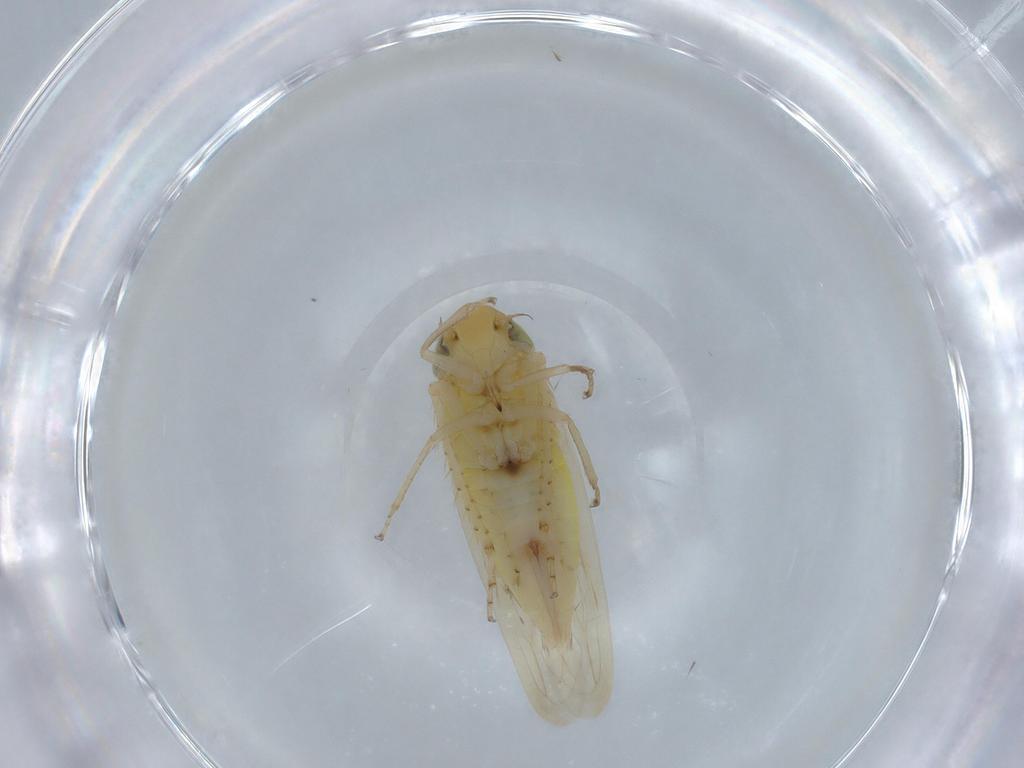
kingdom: Animalia
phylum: Arthropoda
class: Insecta
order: Hemiptera
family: Cicadellidae
